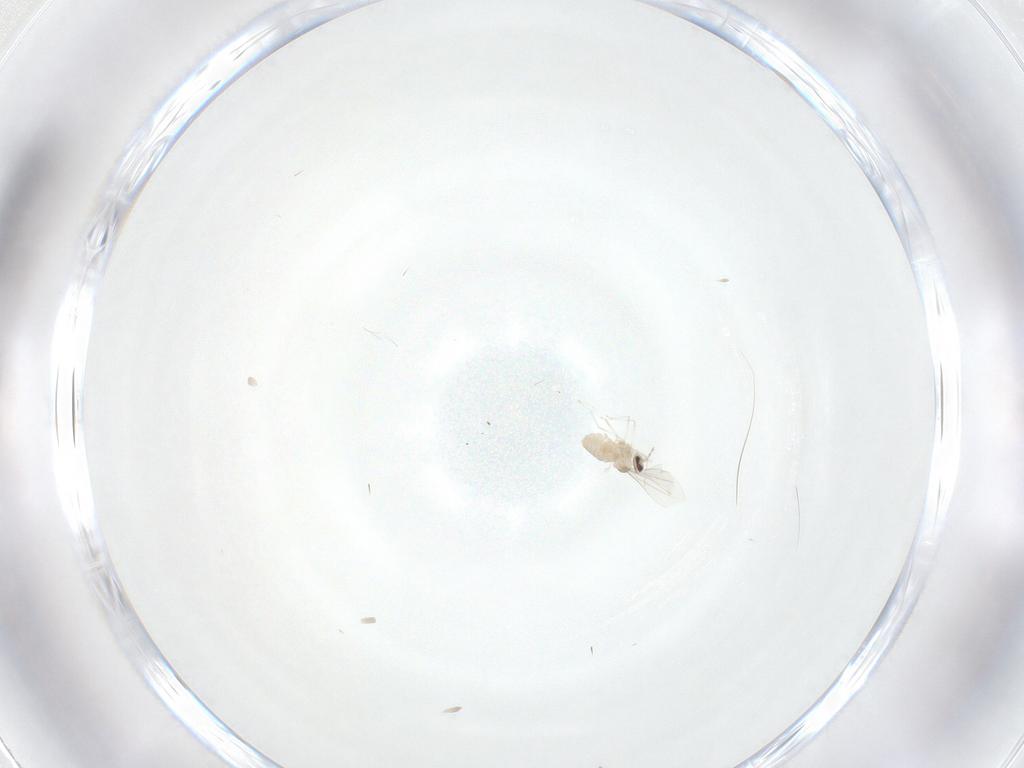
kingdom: Animalia
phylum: Arthropoda
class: Insecta
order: Diptera
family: Cecidomyiidae
